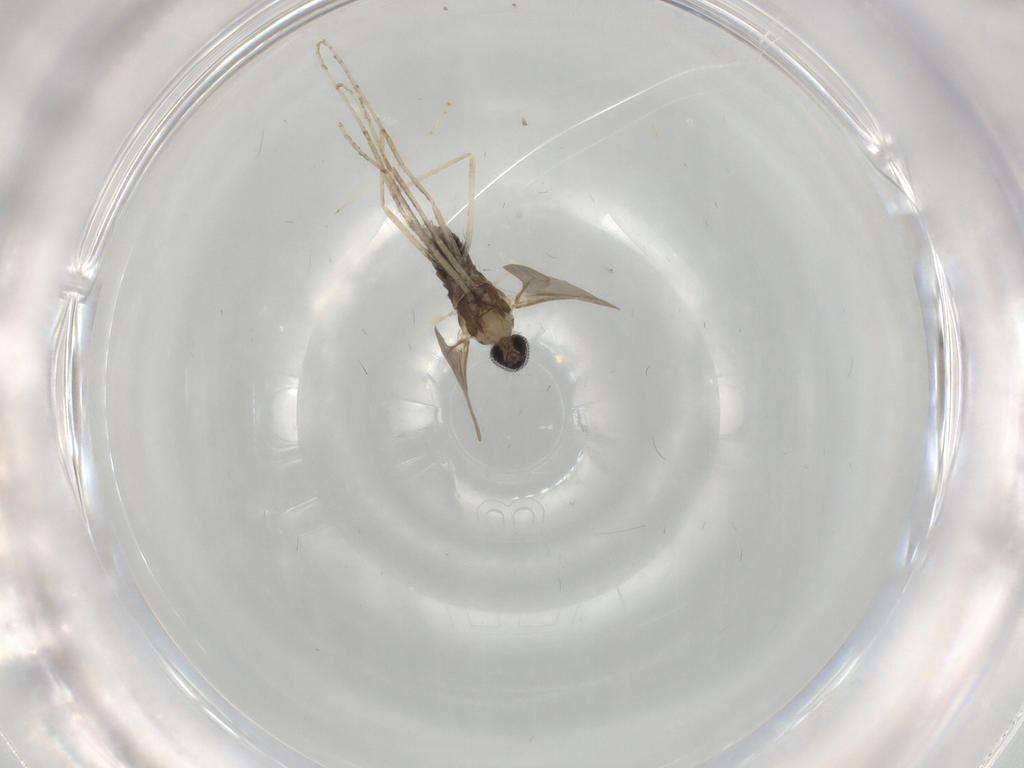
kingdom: Animalia
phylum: Arthropoda
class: Insecta
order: Diptera
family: Cecidomyiidae
